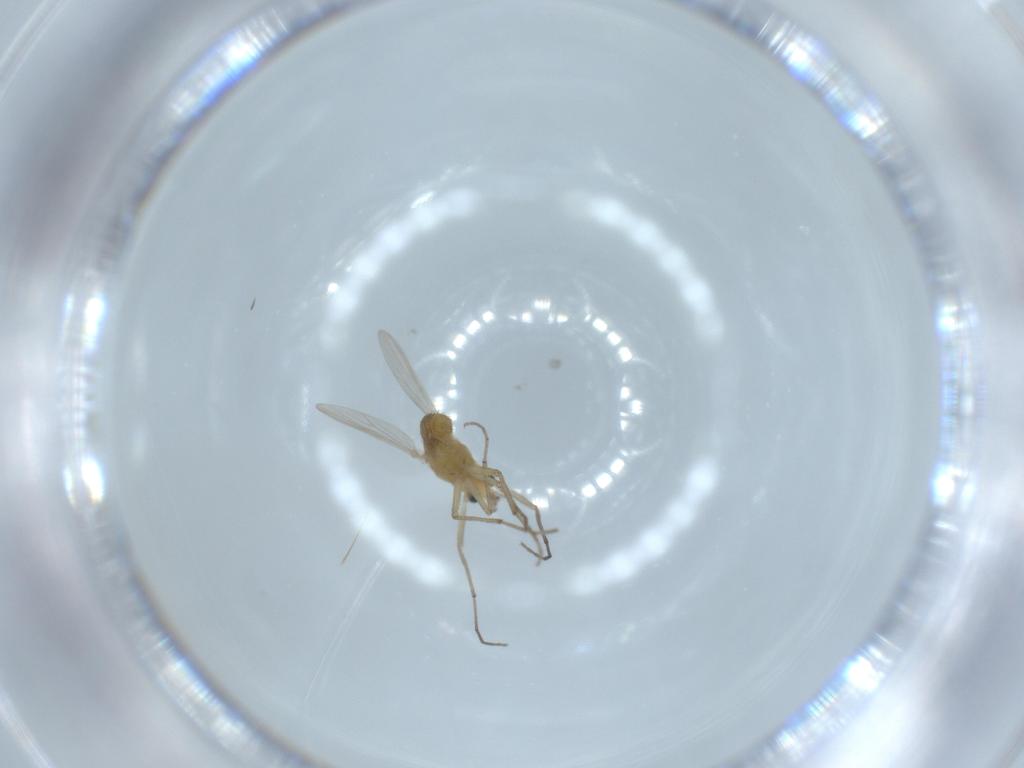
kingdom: Animalia
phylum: Arthropoda
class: Insecta
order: Diptera
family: Chironomidae
